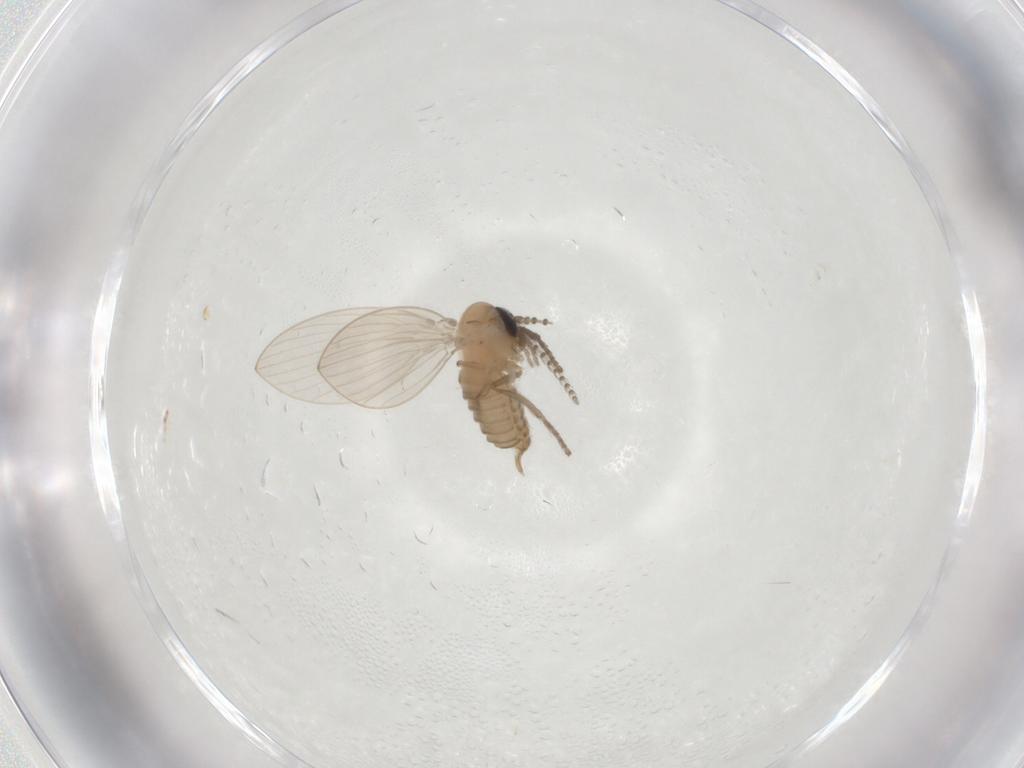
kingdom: Animalia
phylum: Arthropoda
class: Insecta
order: Diptera
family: Psychodidae
